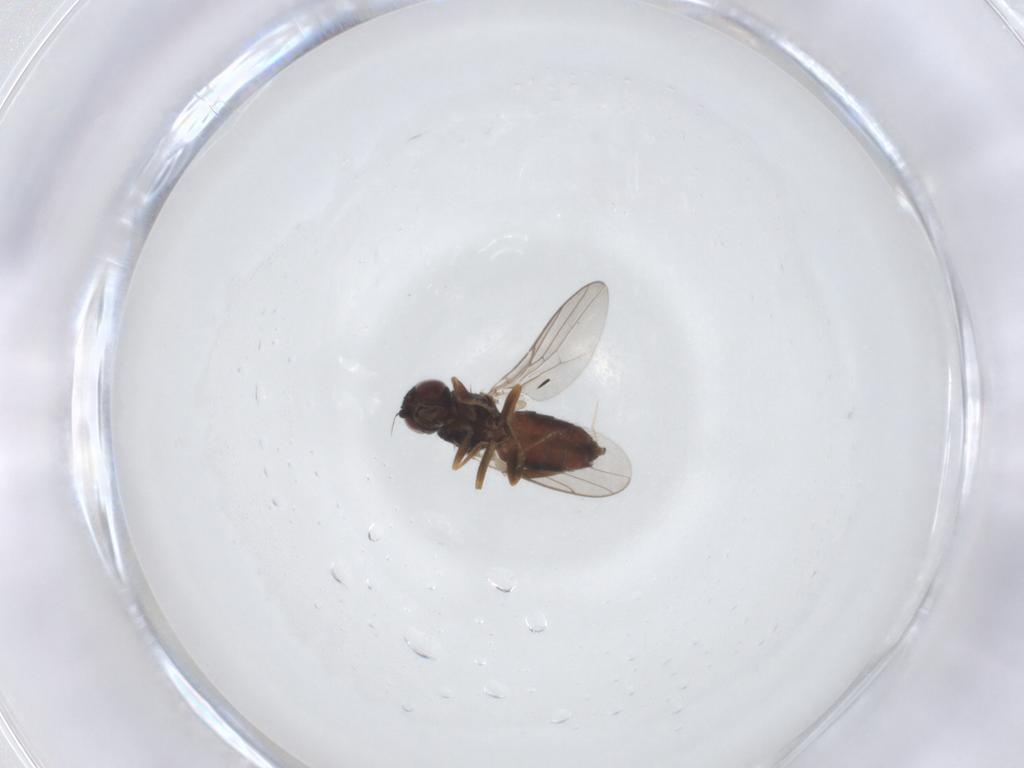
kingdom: Animalia
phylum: Arthropoda
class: Insecta
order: Diptera
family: Chloropidae
